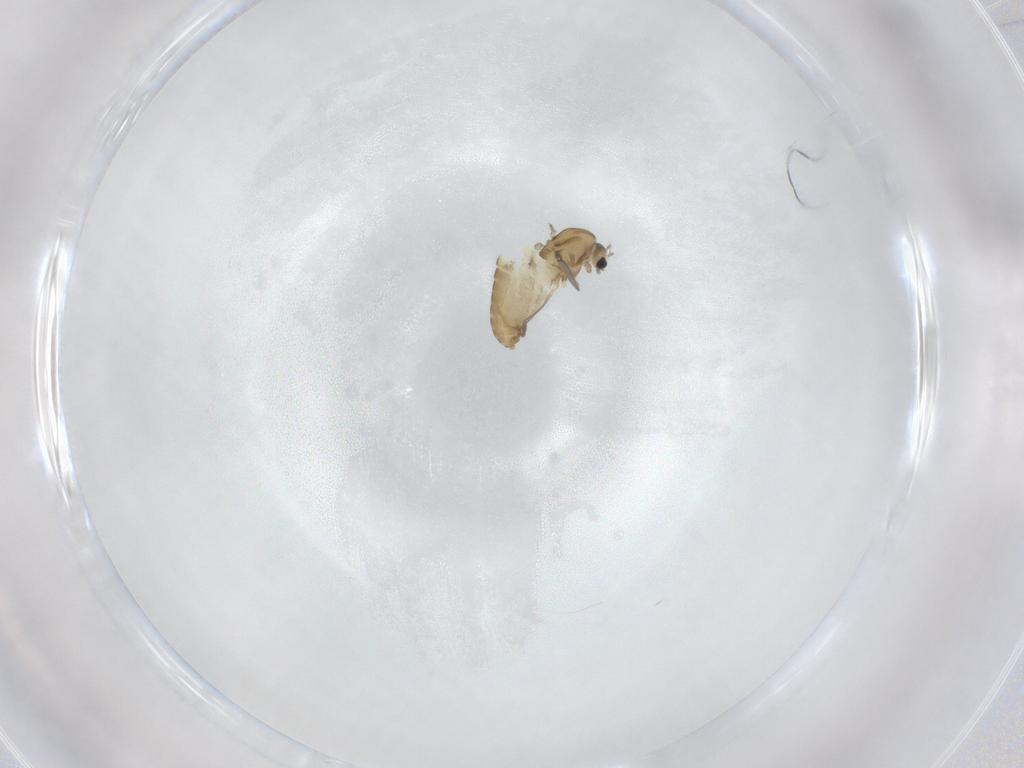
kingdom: Animalia
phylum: Arthropoda
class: Insecta
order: Diptera
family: Chironomidae
